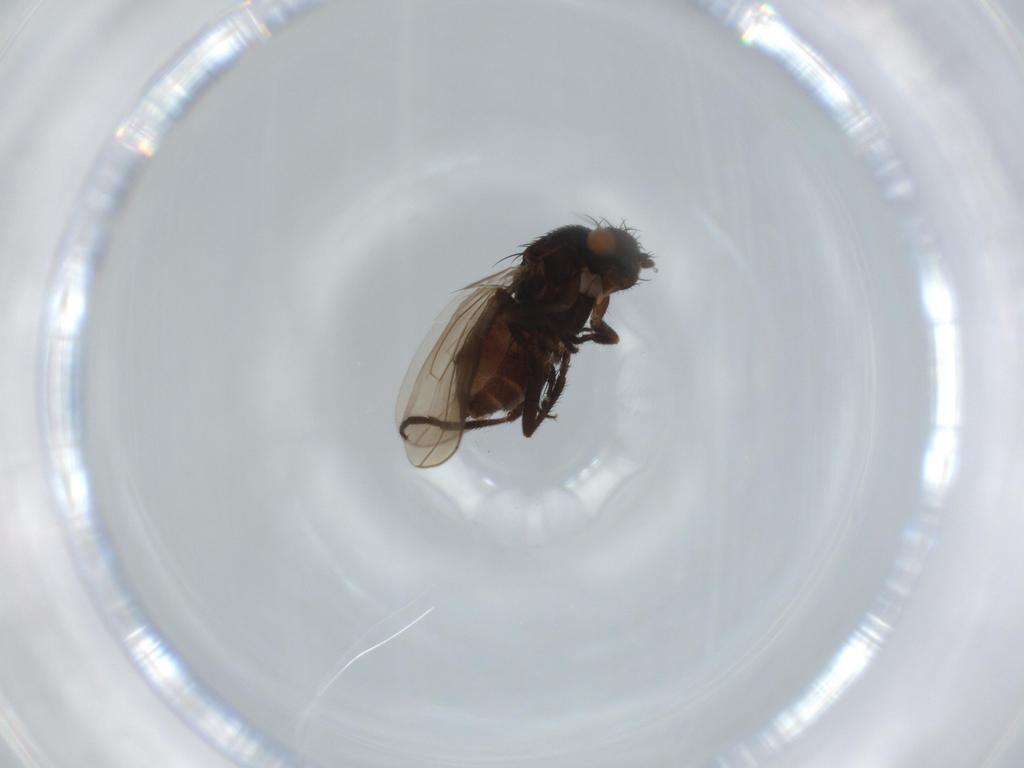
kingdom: Animalia
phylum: Arthropoda
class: Insecta
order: Diptera
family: Sphaeroceridae
